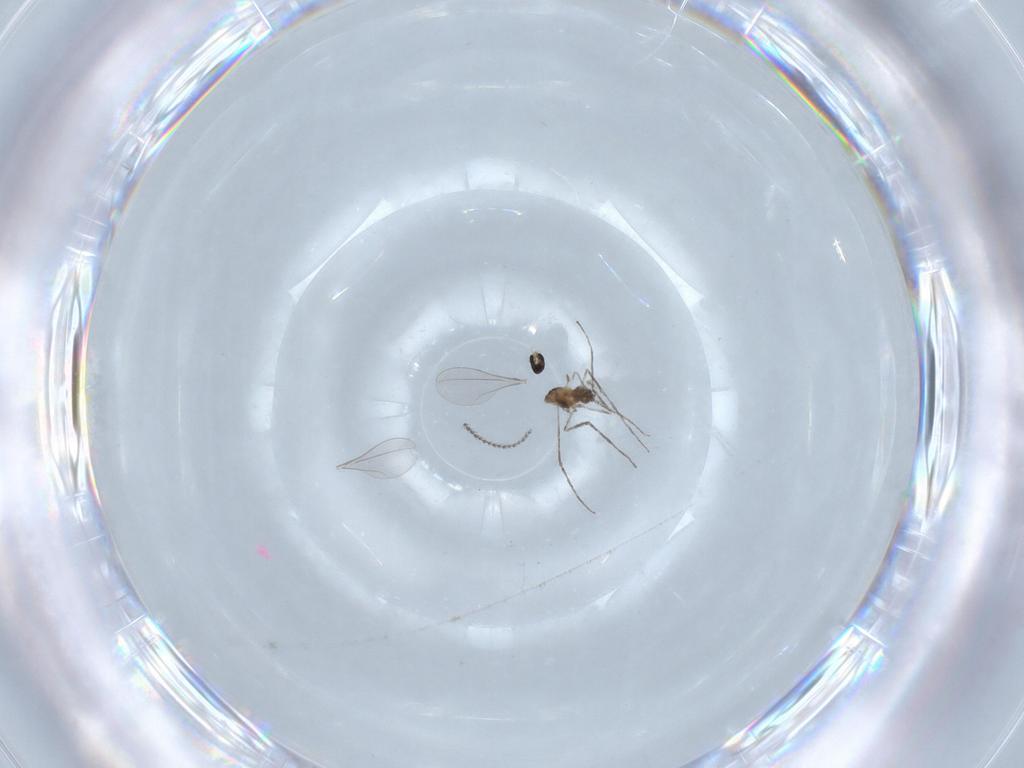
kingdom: Animalia
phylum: Arthropoda
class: Insecta
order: Diptera
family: Cecidomyiidae
